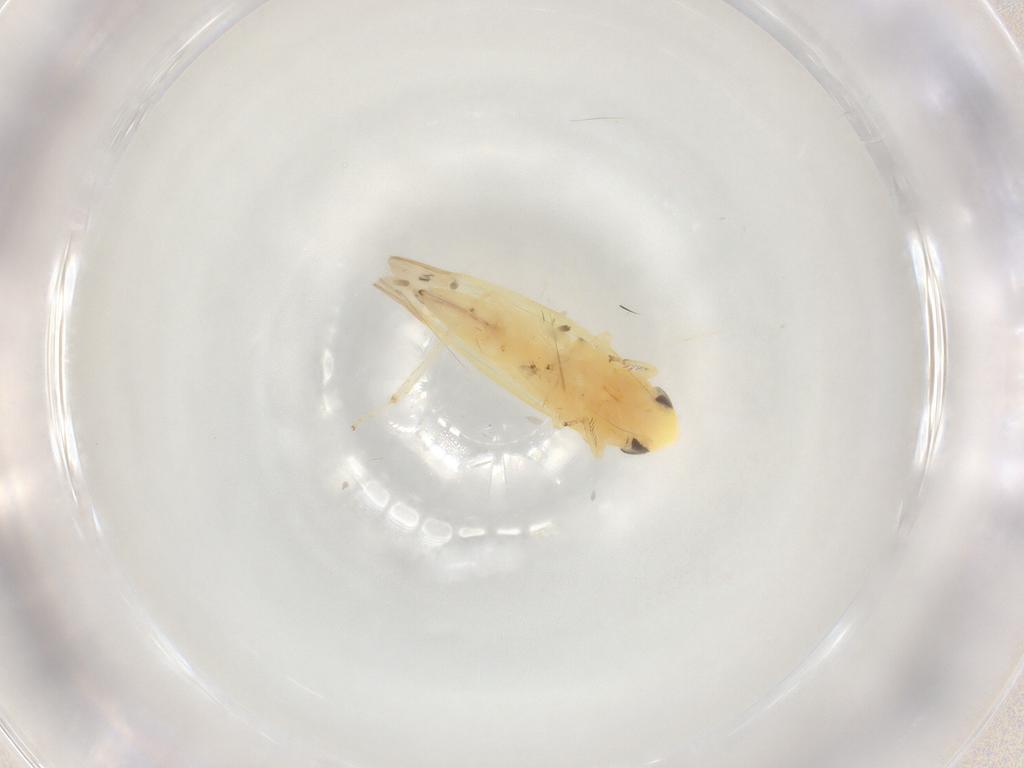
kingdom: Animalia
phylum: Arthropoda
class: Insecta
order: Hemiptera
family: Cicadellidae
